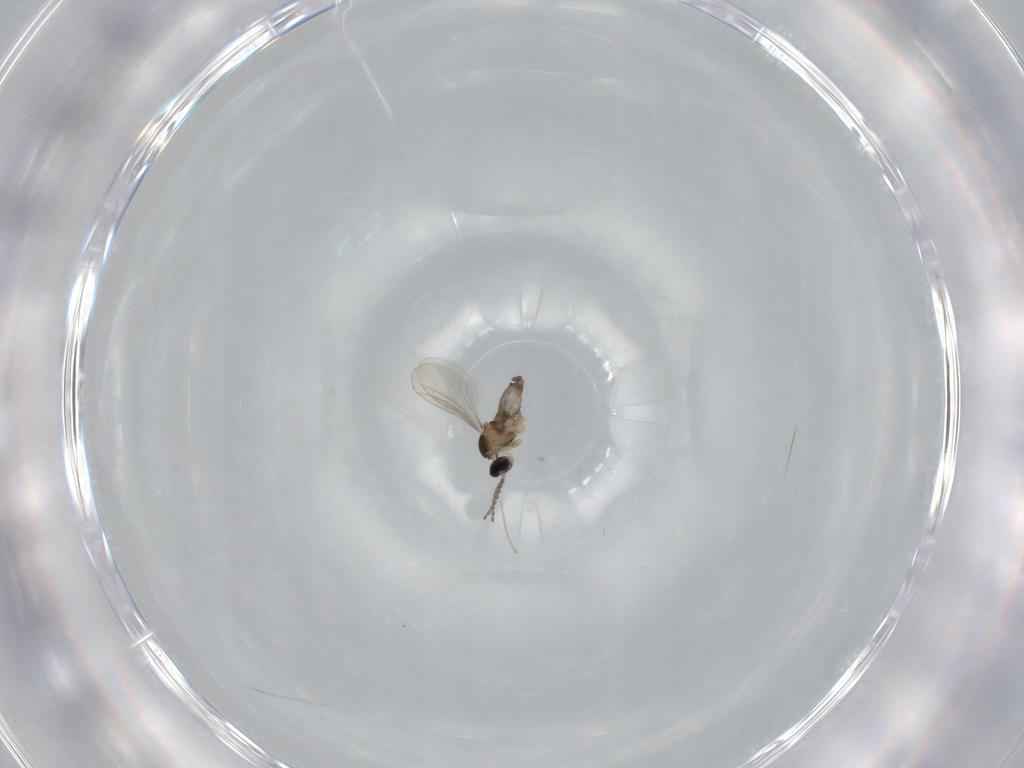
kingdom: Animalia
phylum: Arthropoda
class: Insecta
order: Diptera
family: Cecidomyiidae
